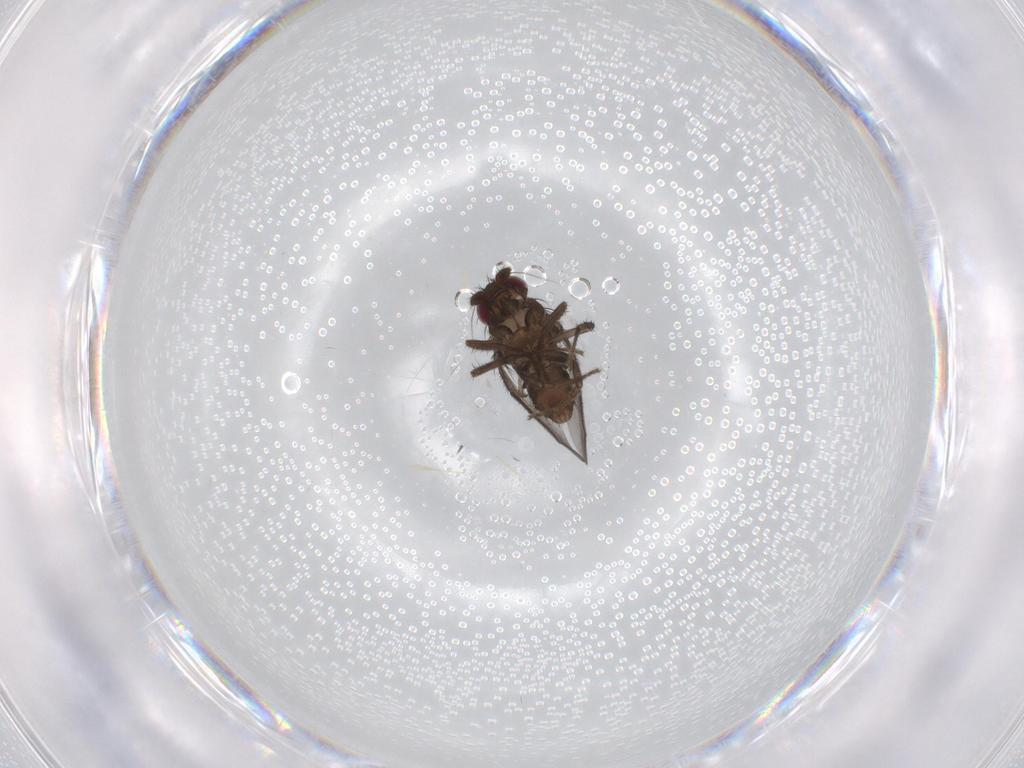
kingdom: Animalia
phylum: Arthropoda
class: Insecta
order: Diptera
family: Sphaeroceridae
